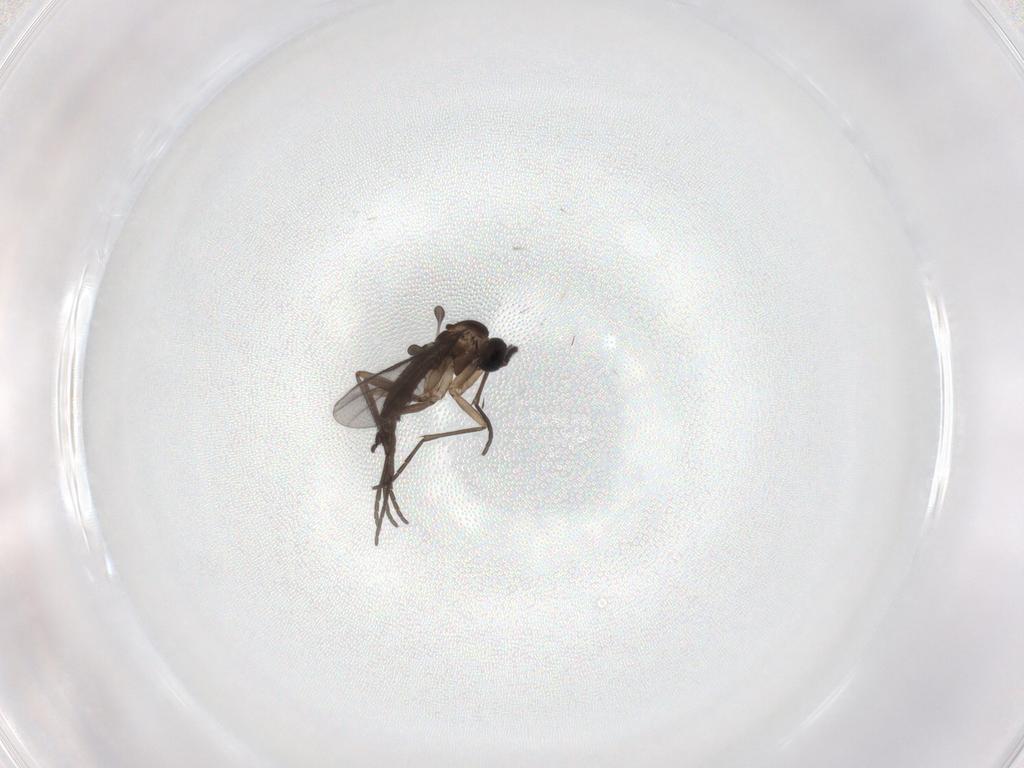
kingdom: Animalia
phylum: Arthropoda
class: Insecta
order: Diptera
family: Sciaridae
